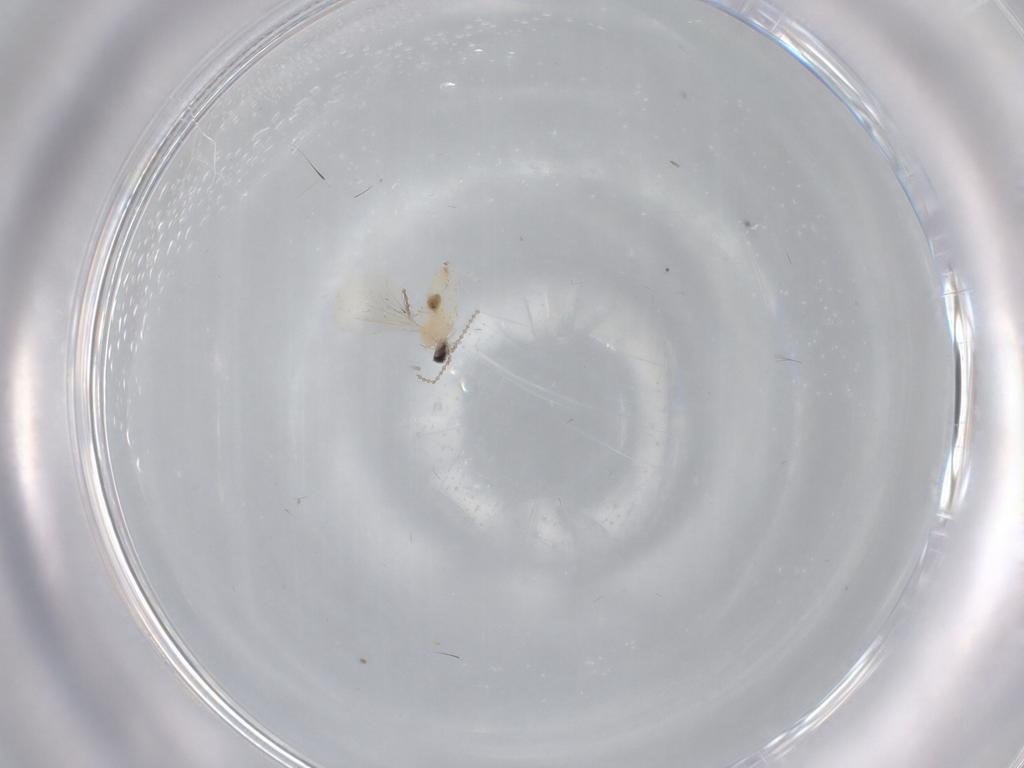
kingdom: Animalia
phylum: Arthropoda
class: Insecta
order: Diptera
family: Cecidomyiidae
